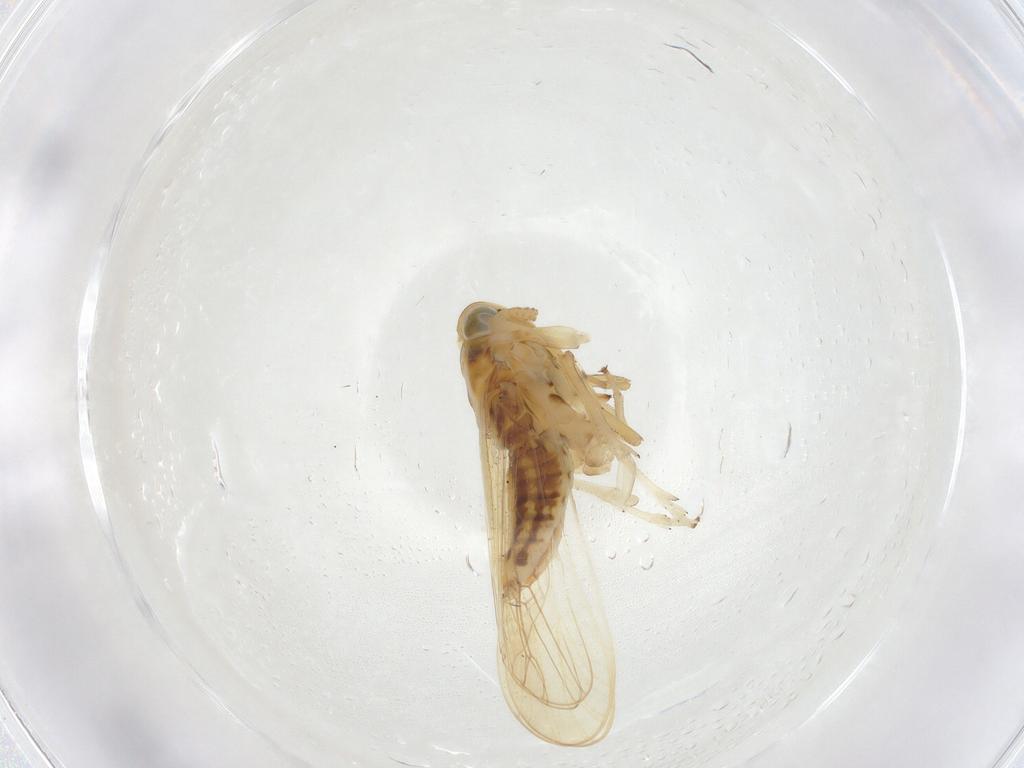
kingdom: Animalia
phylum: Arthropoda
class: Insecta
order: Hemiptera
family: Delphacidae
